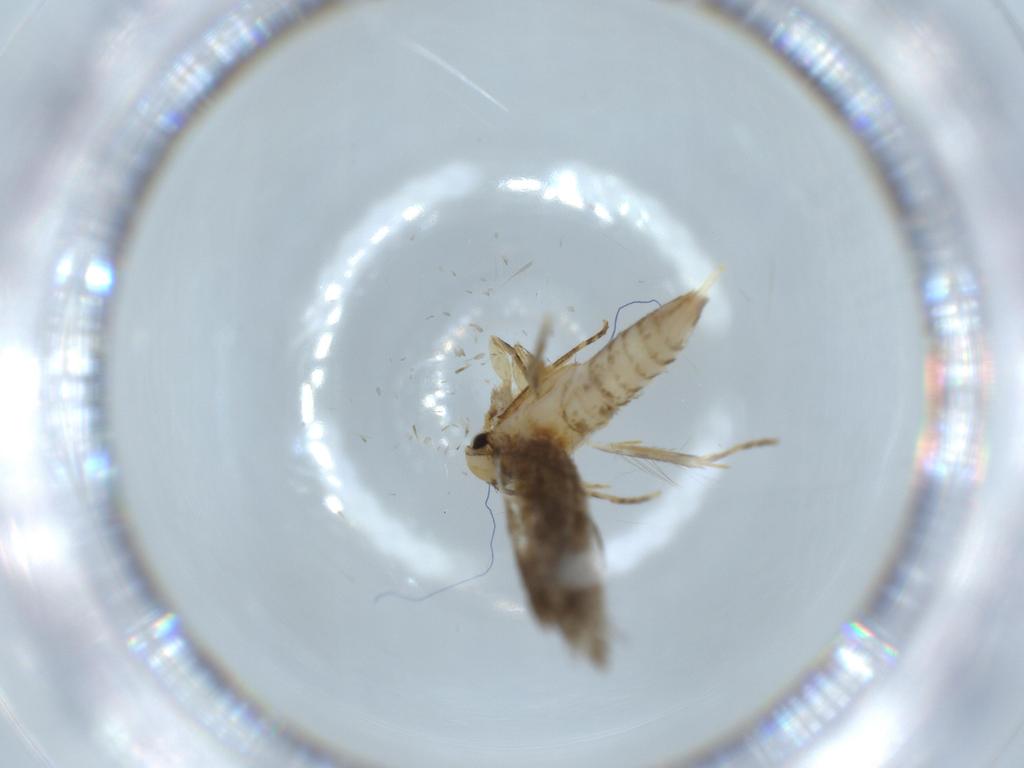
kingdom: Animalia
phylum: Arthropoda
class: Insecta
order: Lepidoptera
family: Tineidae
